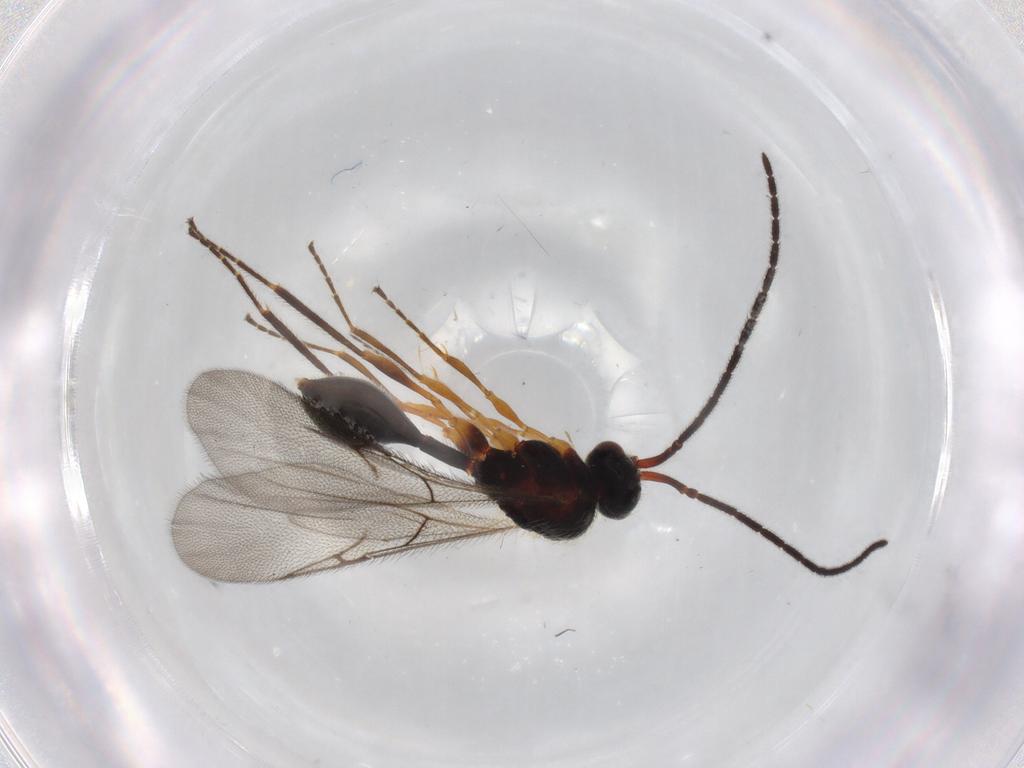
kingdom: Animalia
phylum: Arthropoda
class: Insecta
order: Hymenoptera
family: Figitidae
